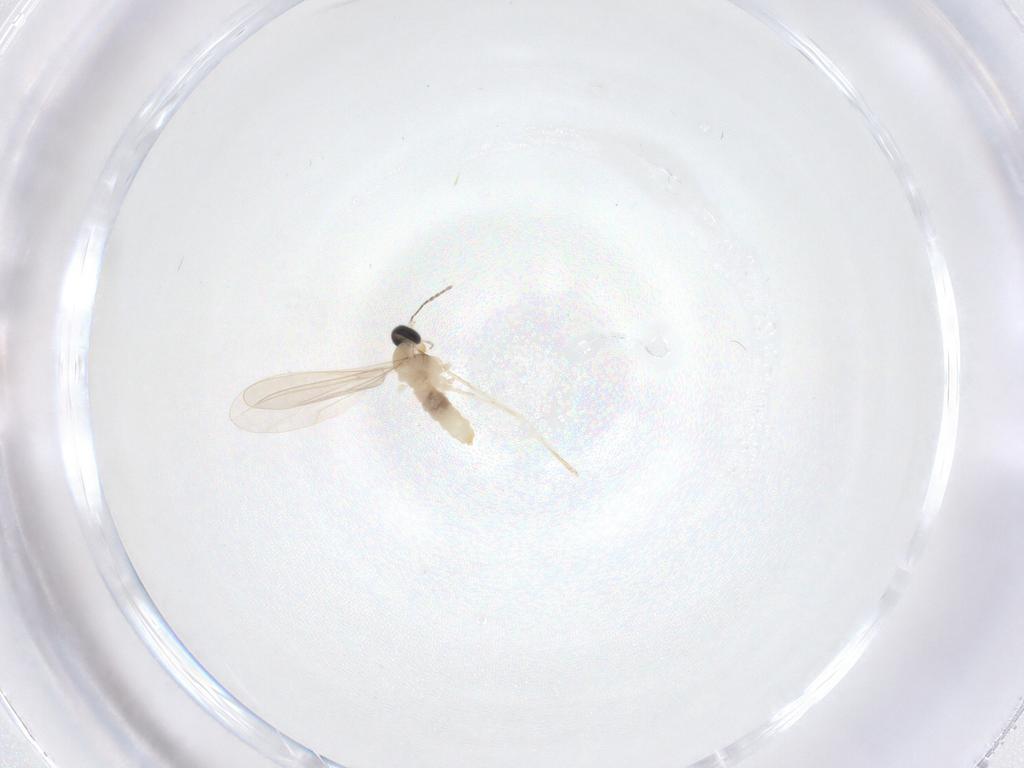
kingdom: Animalia
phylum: Arthropoda
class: Insecta
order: Diptera
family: Cecidomyiidae
